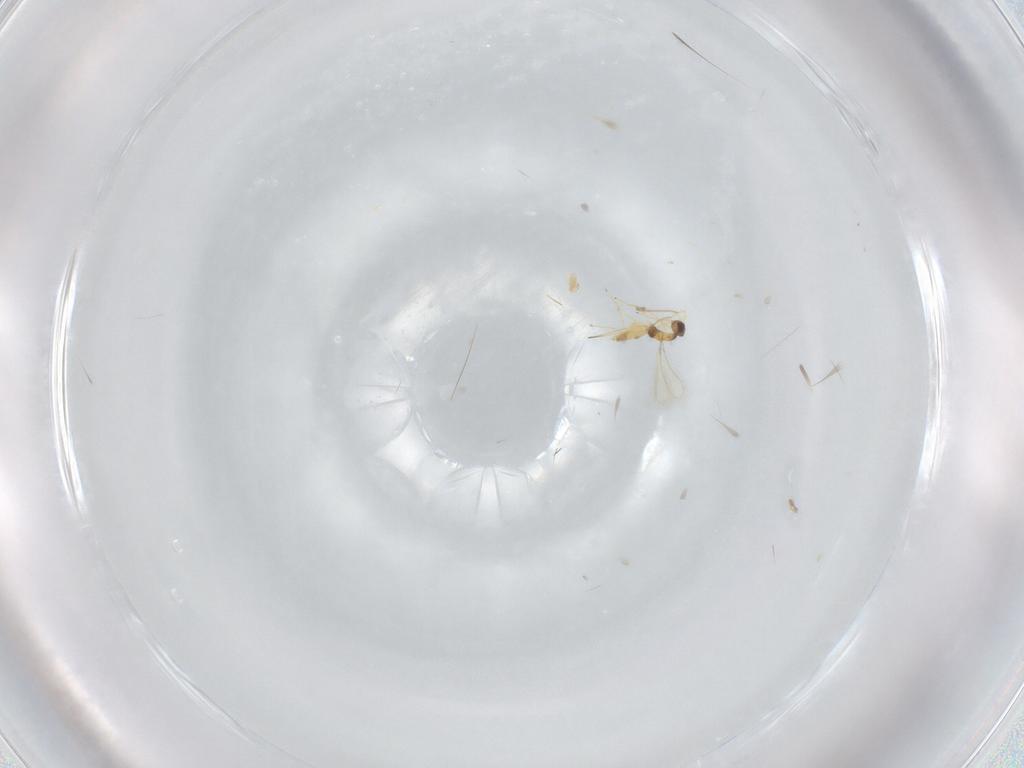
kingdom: Animalia
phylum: Arthropoda
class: Insecta
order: Hymenoptera
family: Mymaridae
